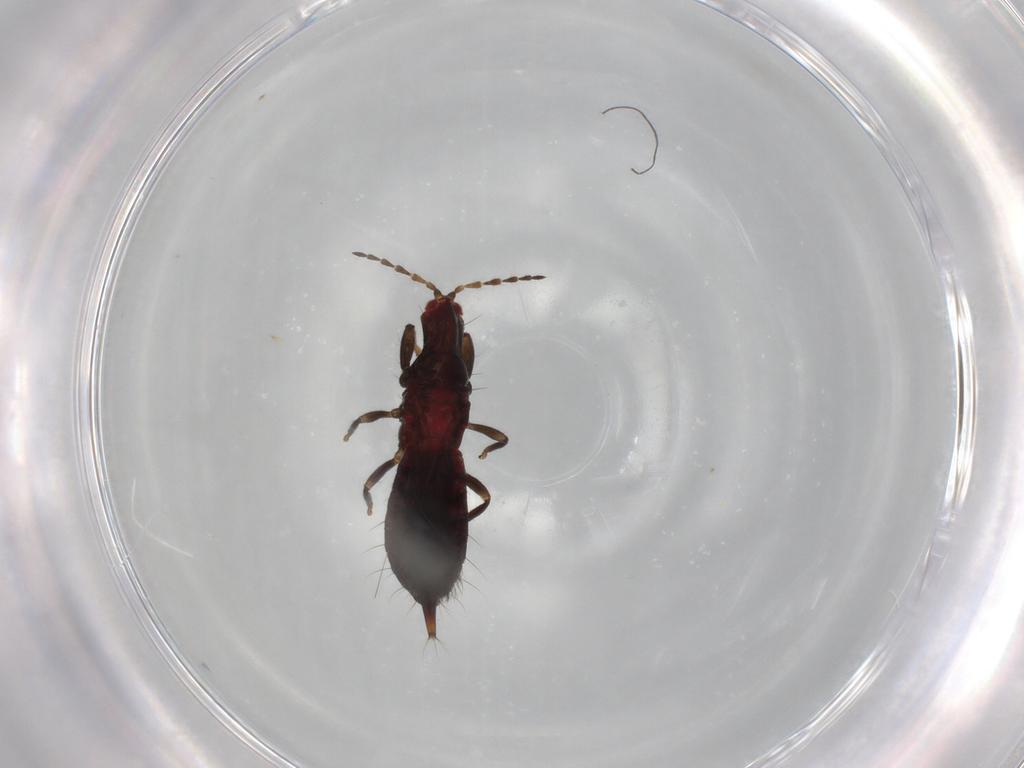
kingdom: Animalia
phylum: Arthropoda
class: Insecta
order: Thysanoptera
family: Phlaeothripidae
